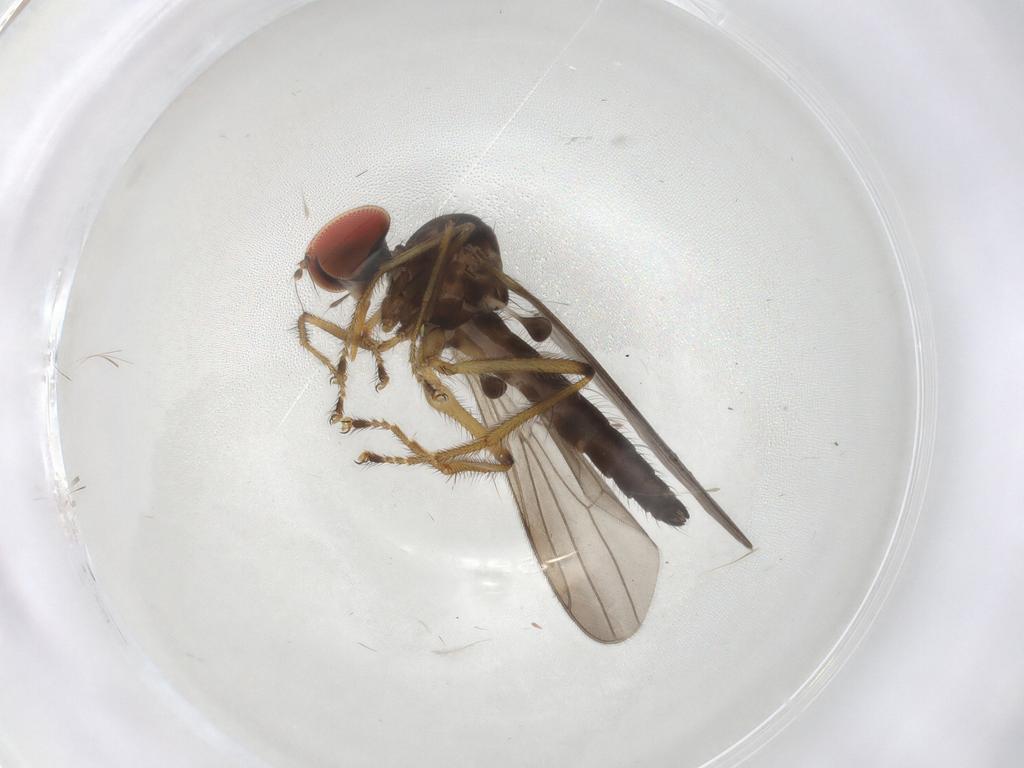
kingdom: Animalia
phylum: Arthropoda
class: Insecta
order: Diptera
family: Hybotidae
